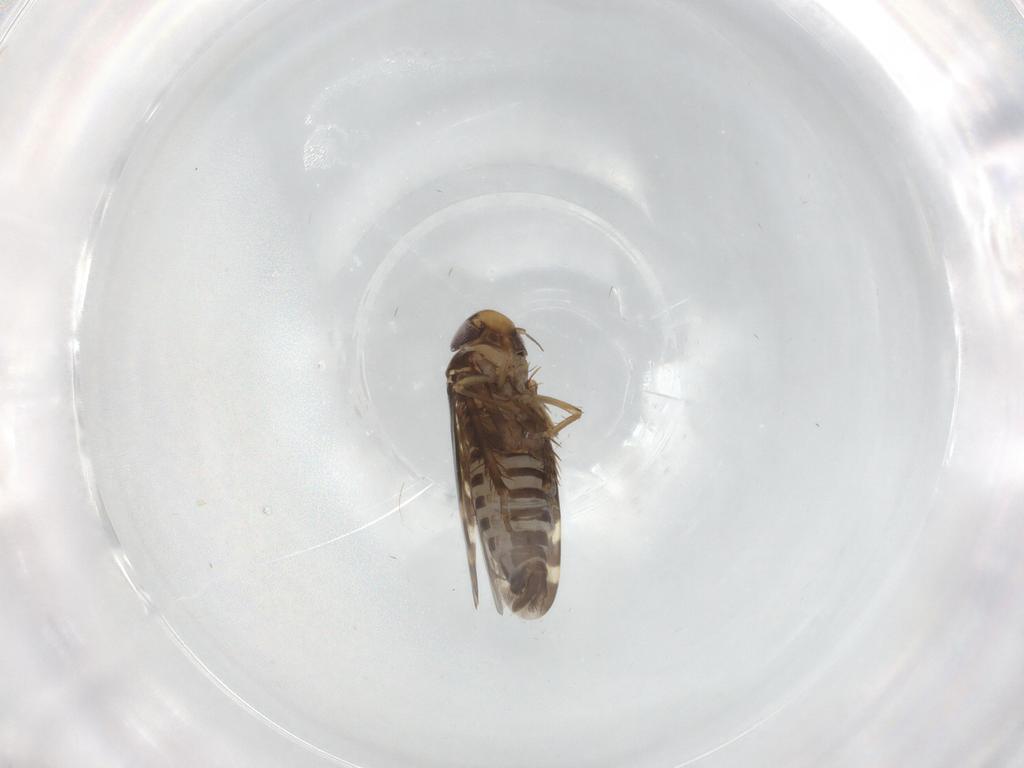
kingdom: Animalia
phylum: Arthropoda
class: Insecta
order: Hemiptera
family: Cicadellidae
